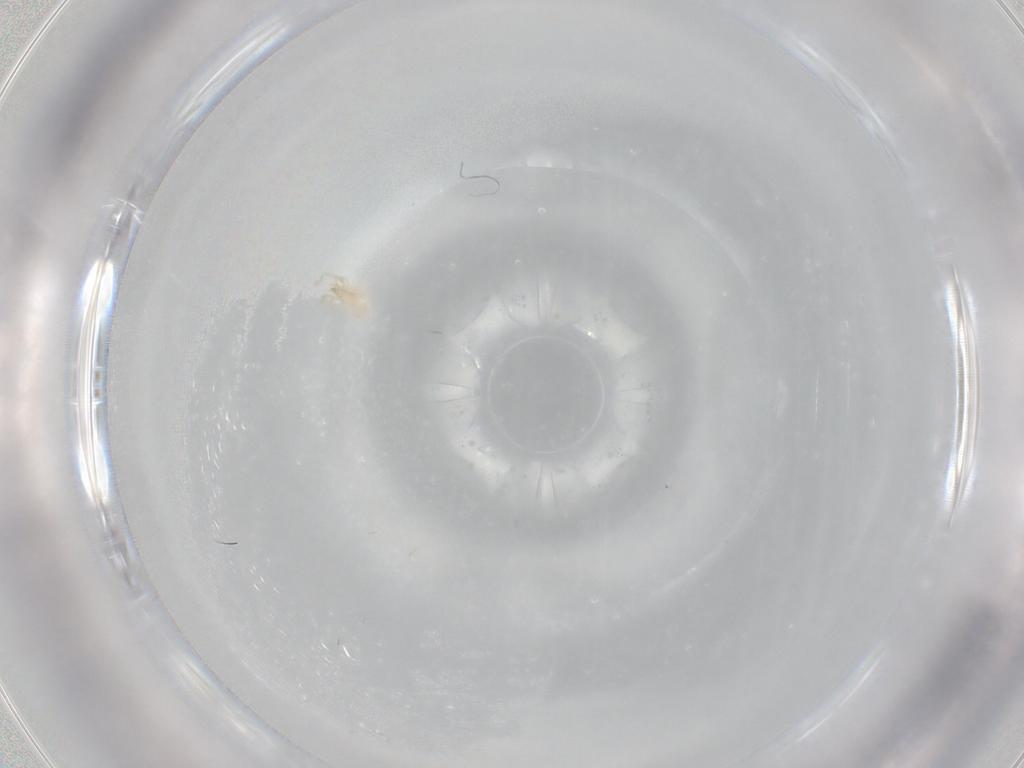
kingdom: Animalia
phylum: Arthropoda
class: Arachnida
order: Trombidiformes
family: Erythraeidae
